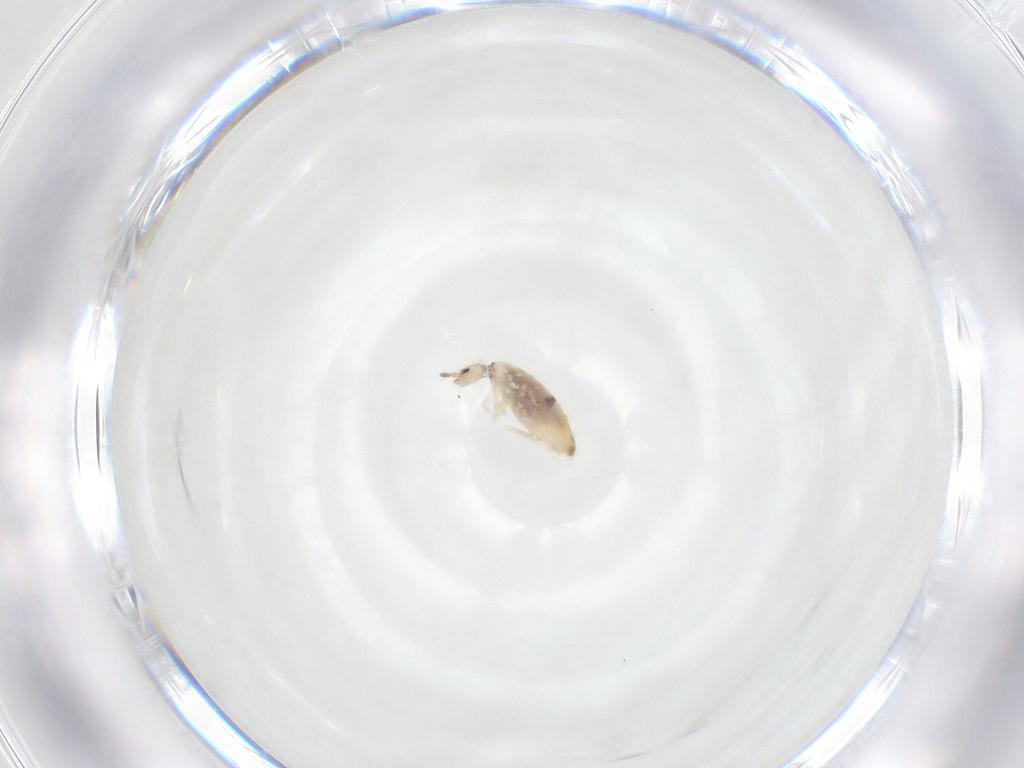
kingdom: Animalia
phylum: Arthropoda
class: Collembola
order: Entomobryomorpha
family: Entomobryidae
